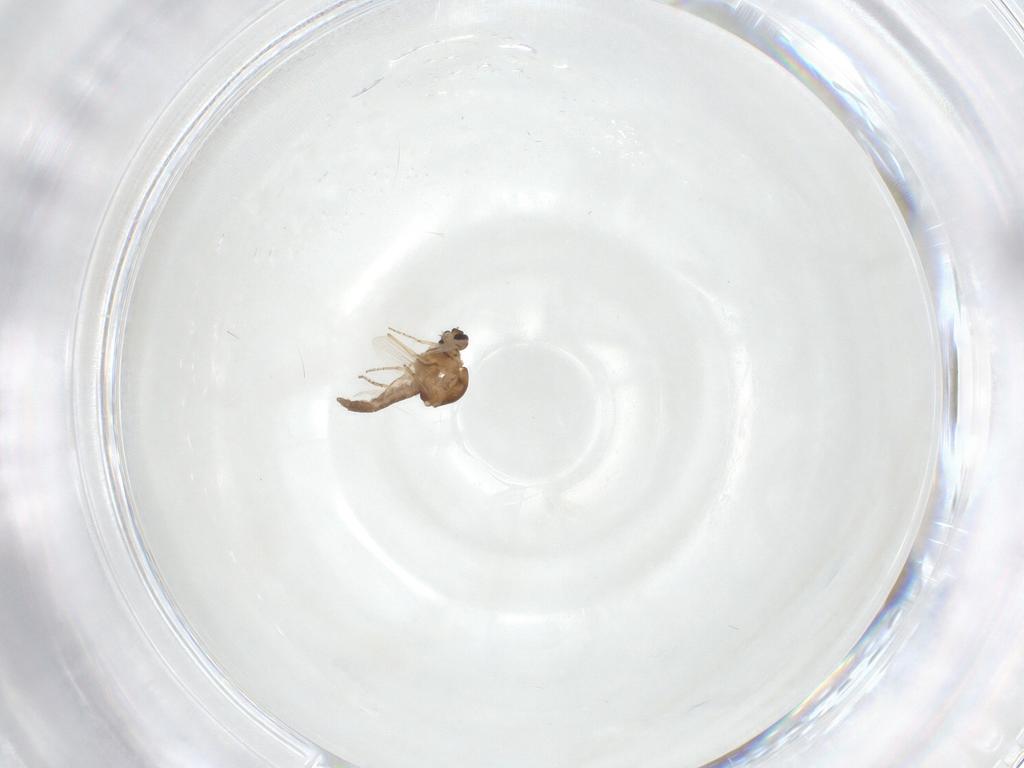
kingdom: Animalia
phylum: Arthropoda
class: Insecta
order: Diptera
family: Ceratopogonidae
